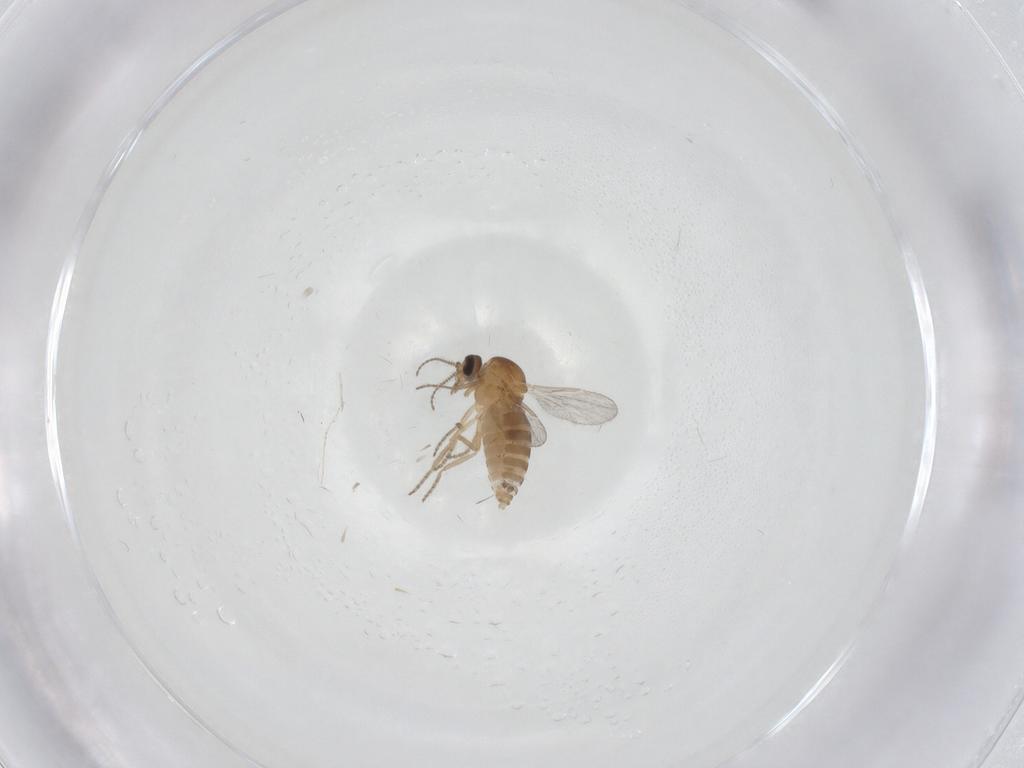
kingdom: Animalia
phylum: Arthropoda
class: Insecta
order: Diptera
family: Ceratopogonidae
